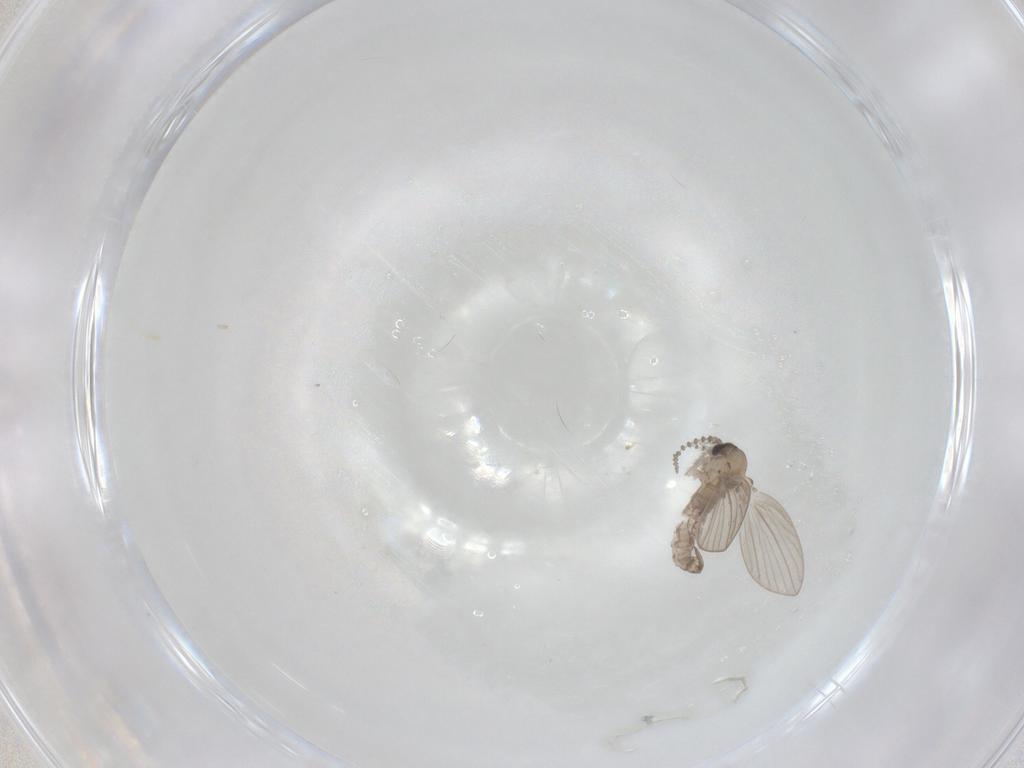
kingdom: Animalia
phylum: Arthropoda
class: Insecta
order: Diptera
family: Psychodidae
